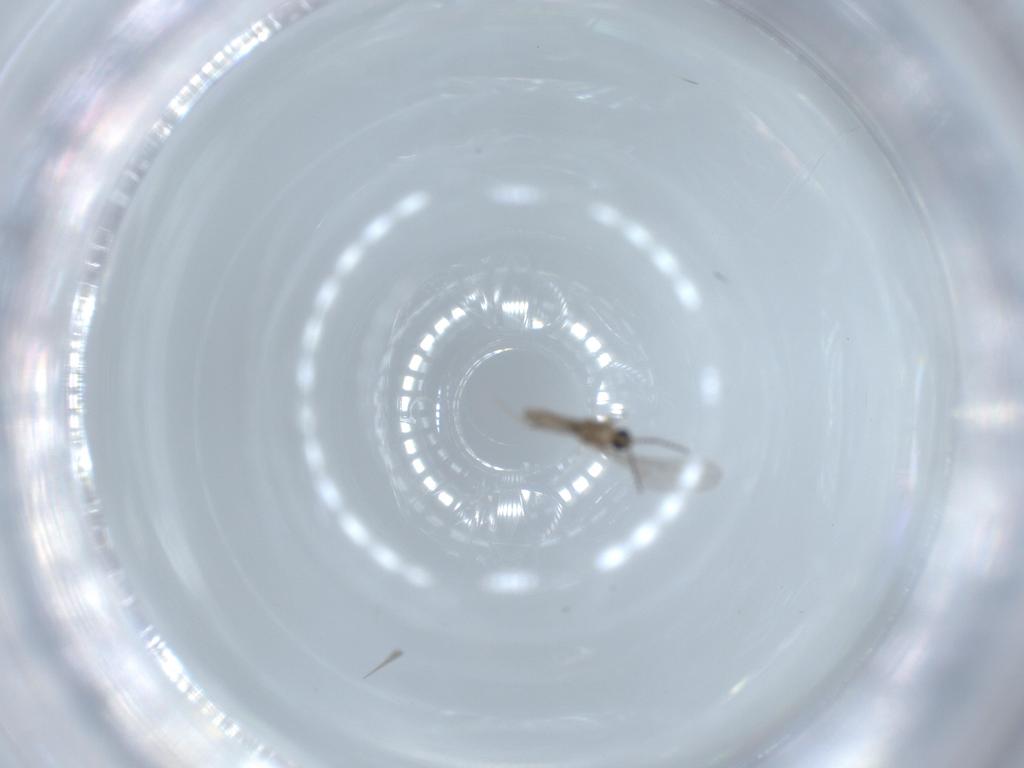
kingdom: Animalia
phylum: Arthropoda
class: Insecta
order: Diptera
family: Cecidomyiidae
